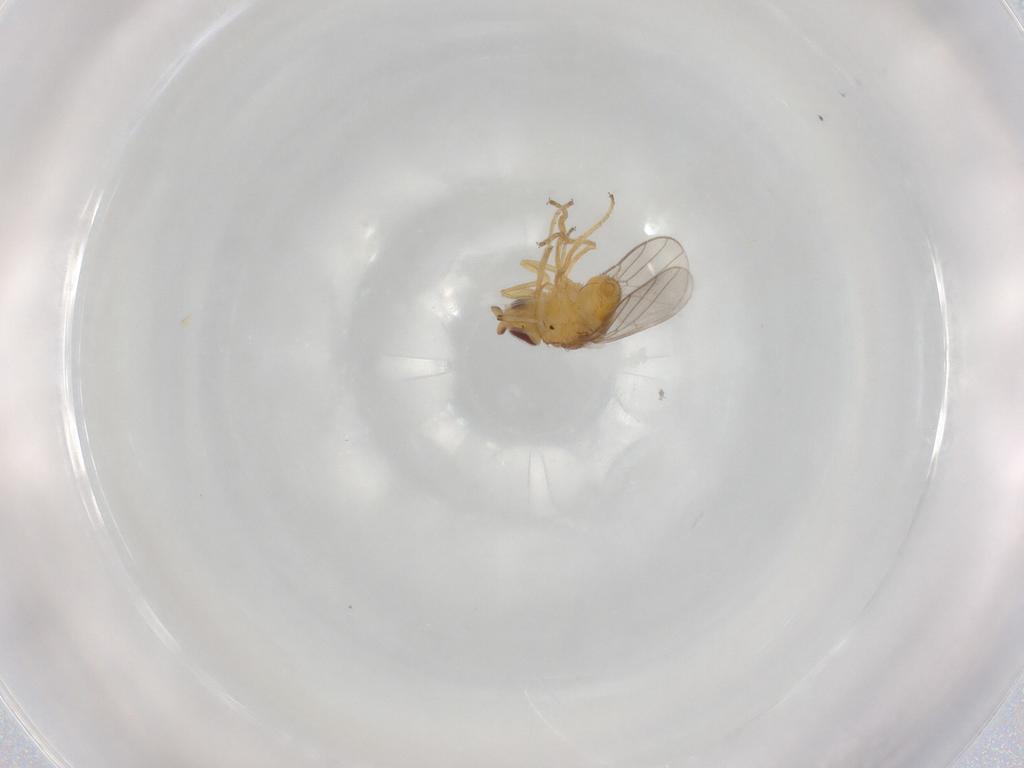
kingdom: Animalia
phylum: Arthropoda
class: Insecta
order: Diptera
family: Chloropidae
